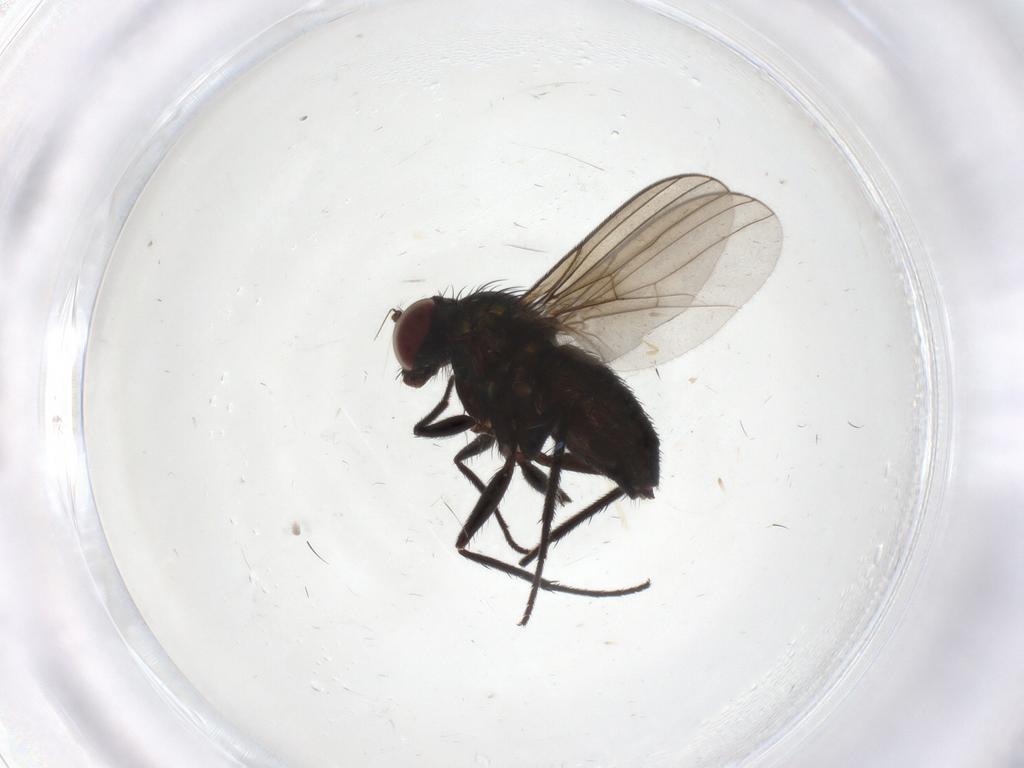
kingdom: Animalia
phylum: Arthropoda
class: Insecta
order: Diptera
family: Dolichopodidae
